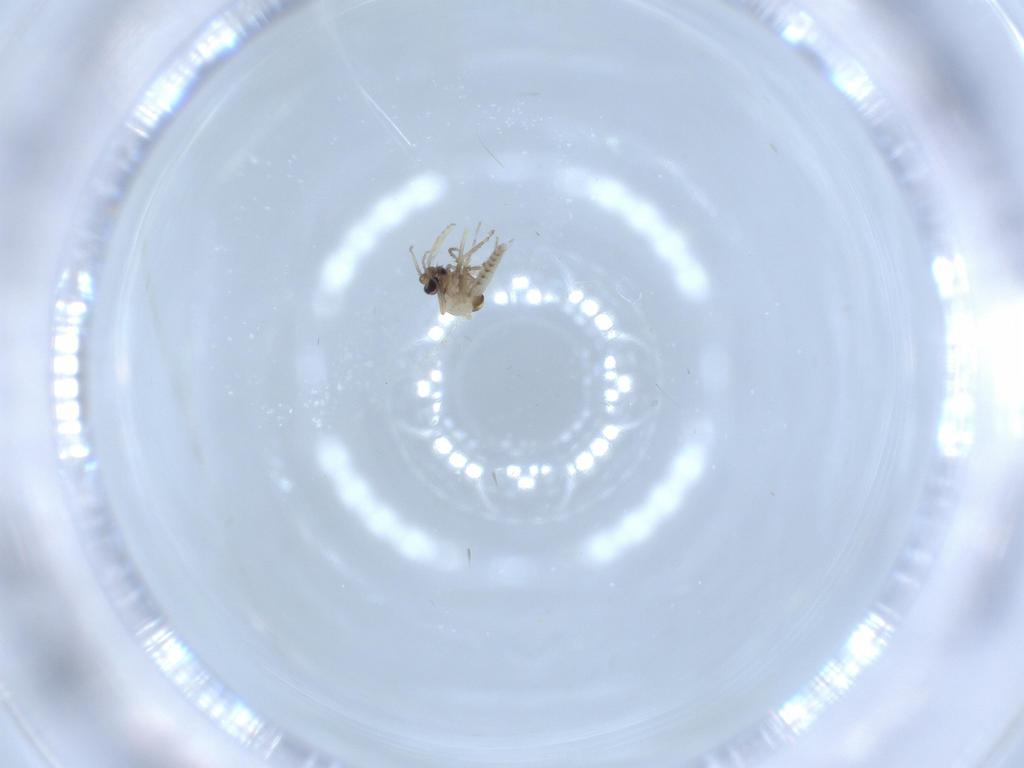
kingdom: Animalia
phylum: Arthropoda
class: Insecta
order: Diptera
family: Ceratopogonidae
